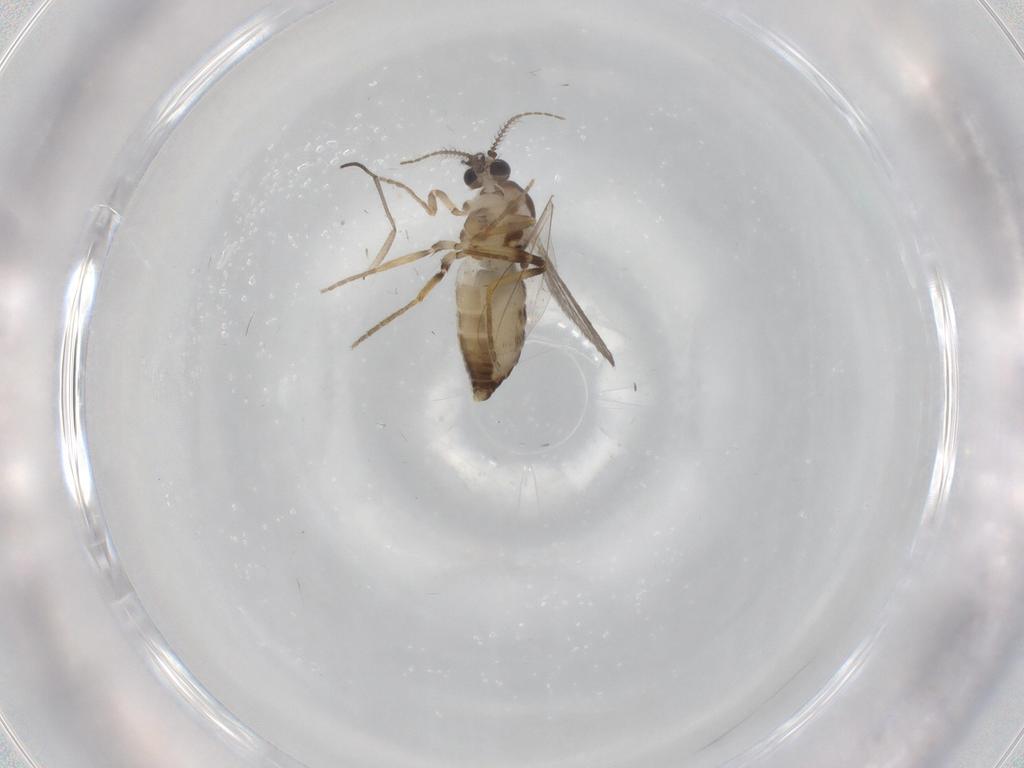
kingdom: Animalia
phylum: Arthropoda
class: Insecta
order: Diptera
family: Ceratopogonidae
